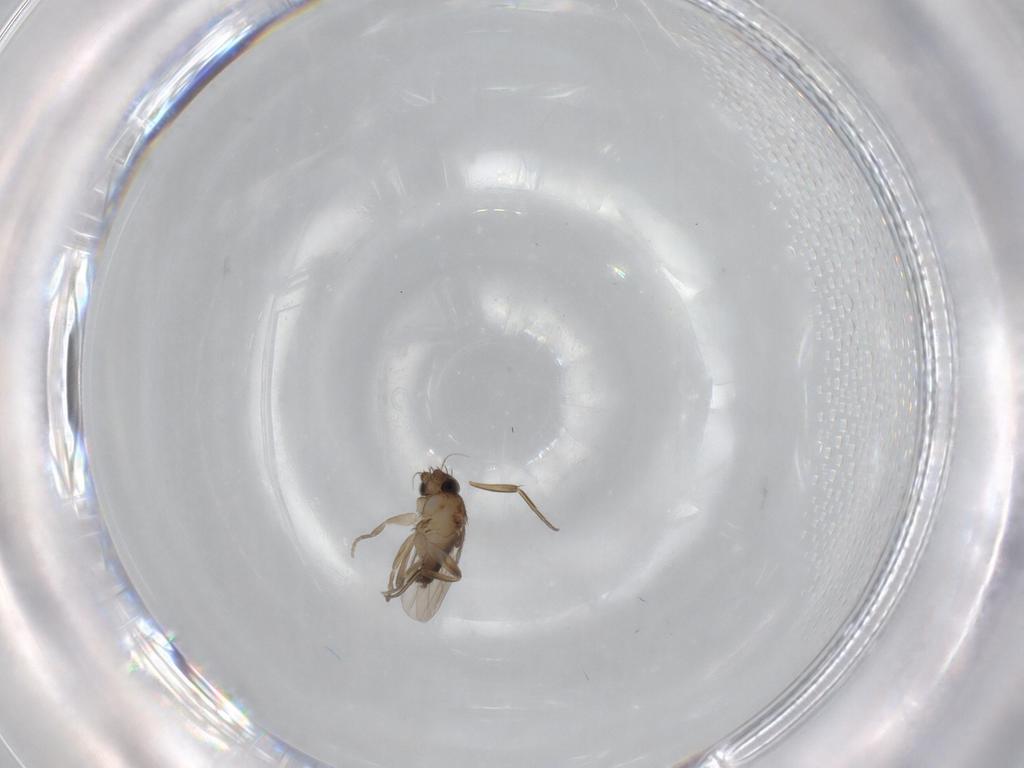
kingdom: Animalia
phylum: Arthropoda
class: Insecta
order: Diptera
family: Phoridae
